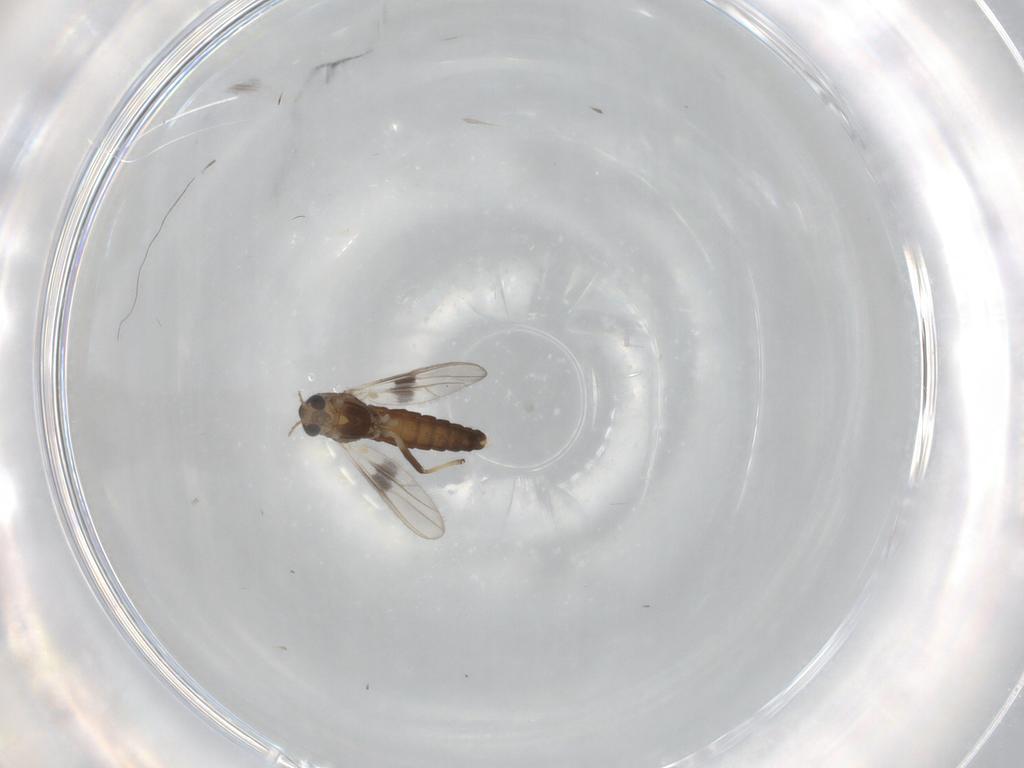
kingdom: Animalia
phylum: Arthropoda
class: Insecta
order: Diptera
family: Chironomidae
